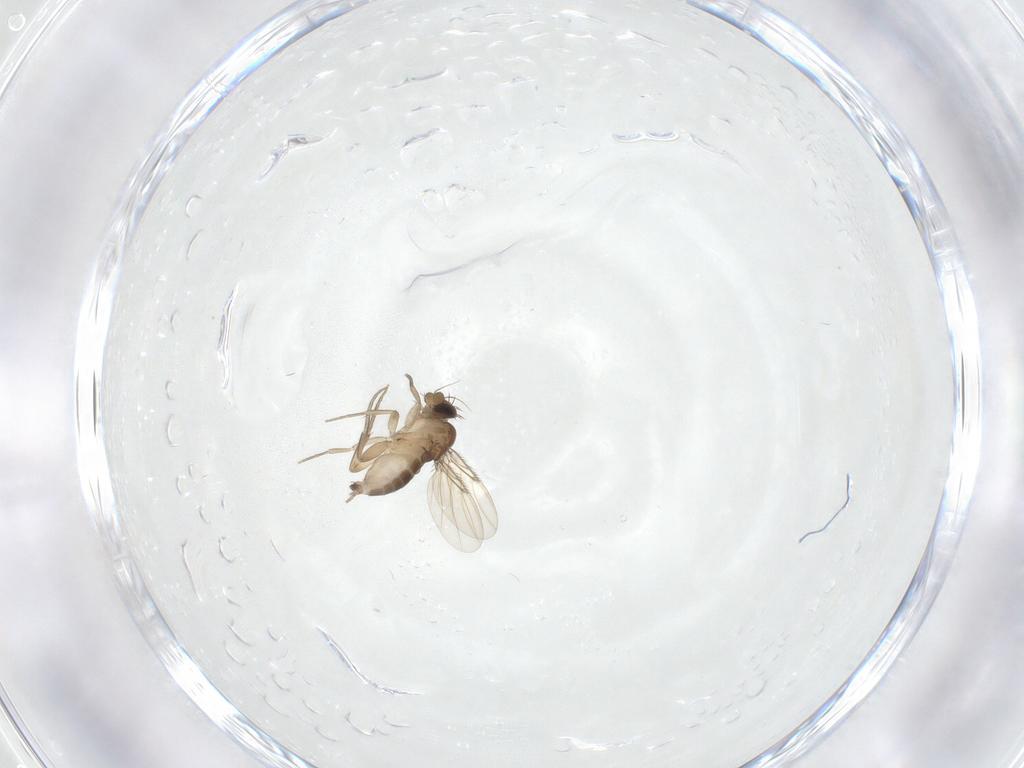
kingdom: Animalia
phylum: Arthropoda
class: Insecta
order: Diptera
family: Phoridae
